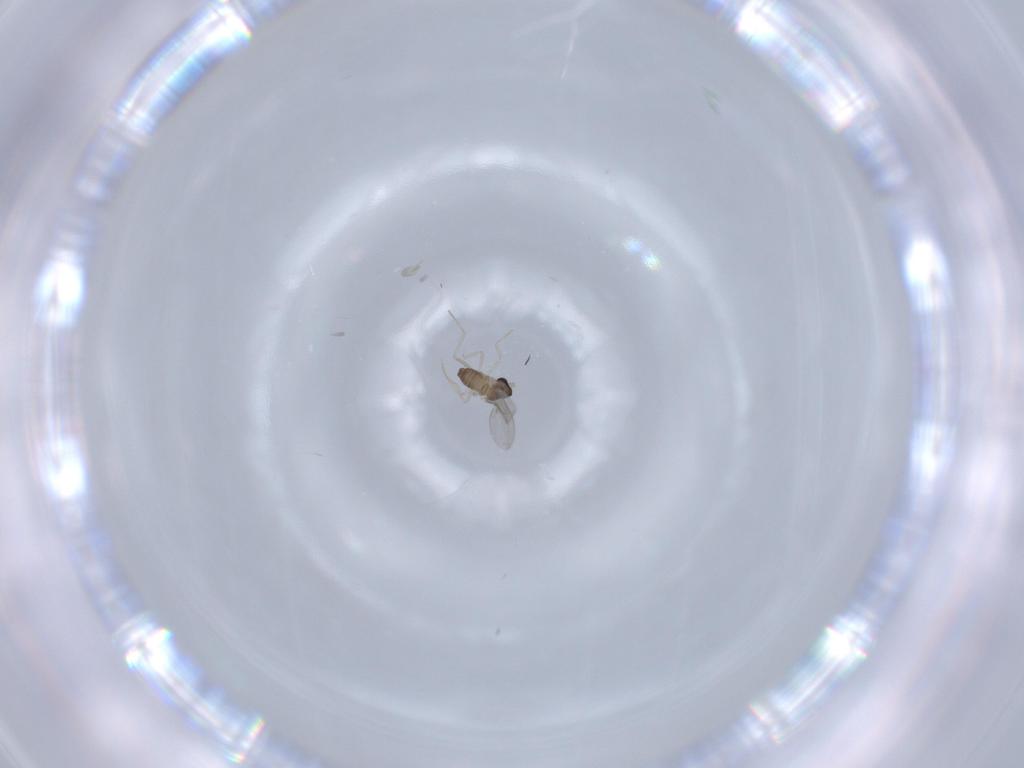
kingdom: Animalia
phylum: Arthropoda
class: Insecta
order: Diptera
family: Cecidomyiidae
